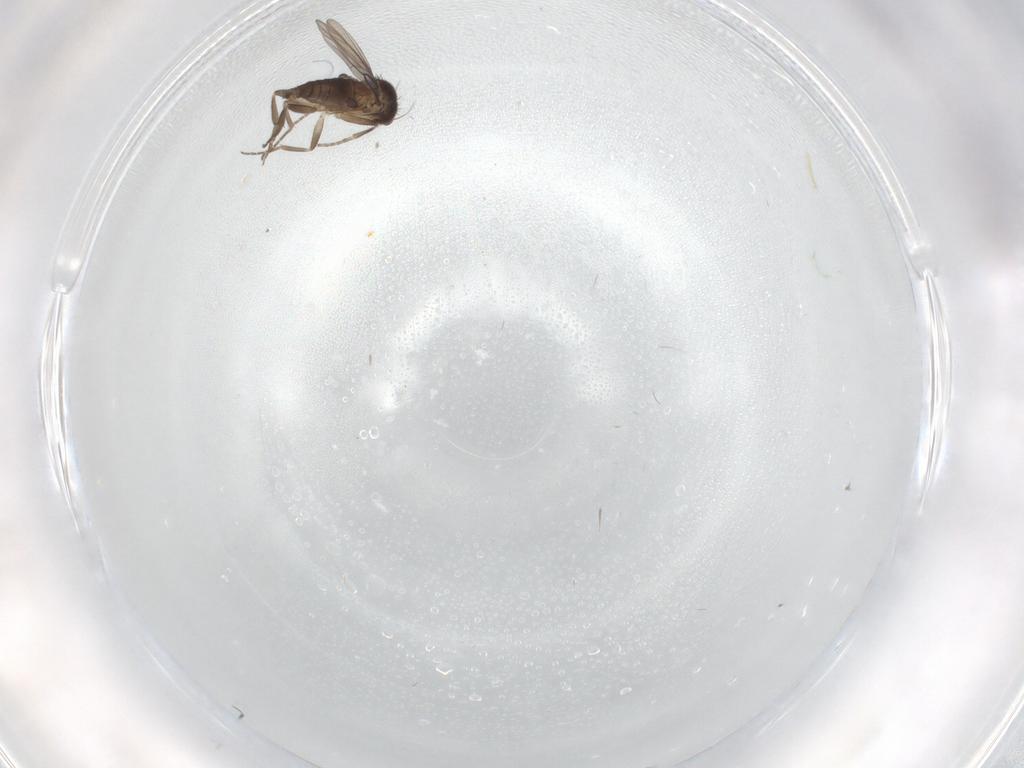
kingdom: Animalia
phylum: Arthropoda
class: Insecta
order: Diptera
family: Phoridae
